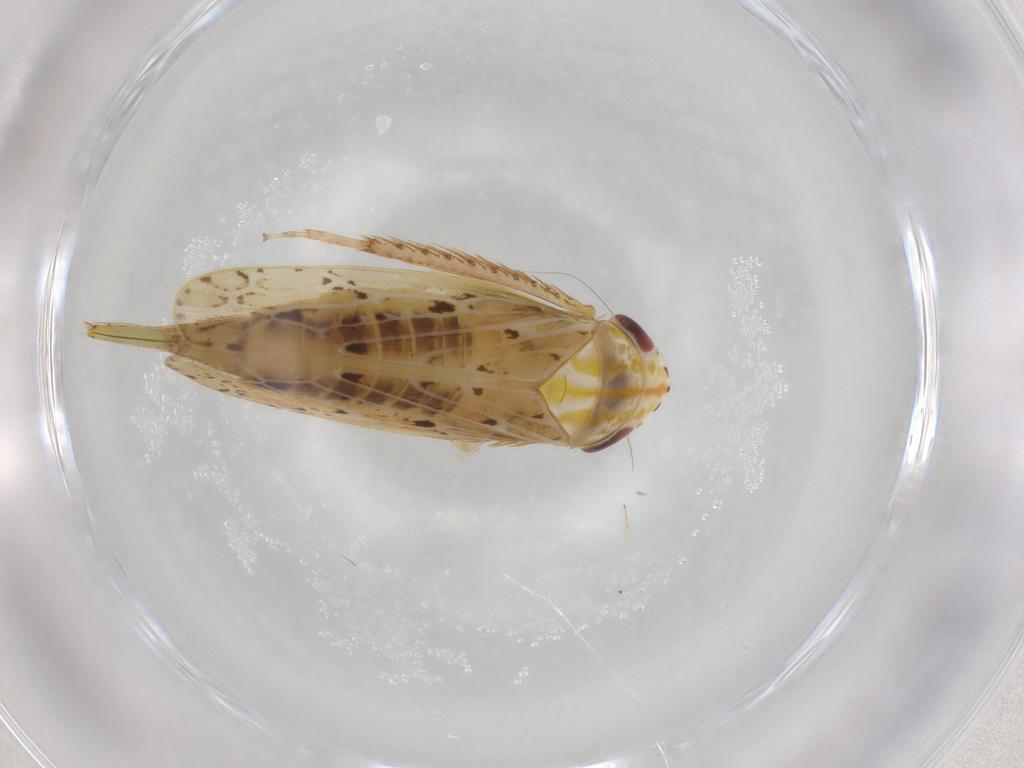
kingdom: Animalia
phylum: Arthropoda
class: Insecta
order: Hemiptera
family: Cicadellidae
